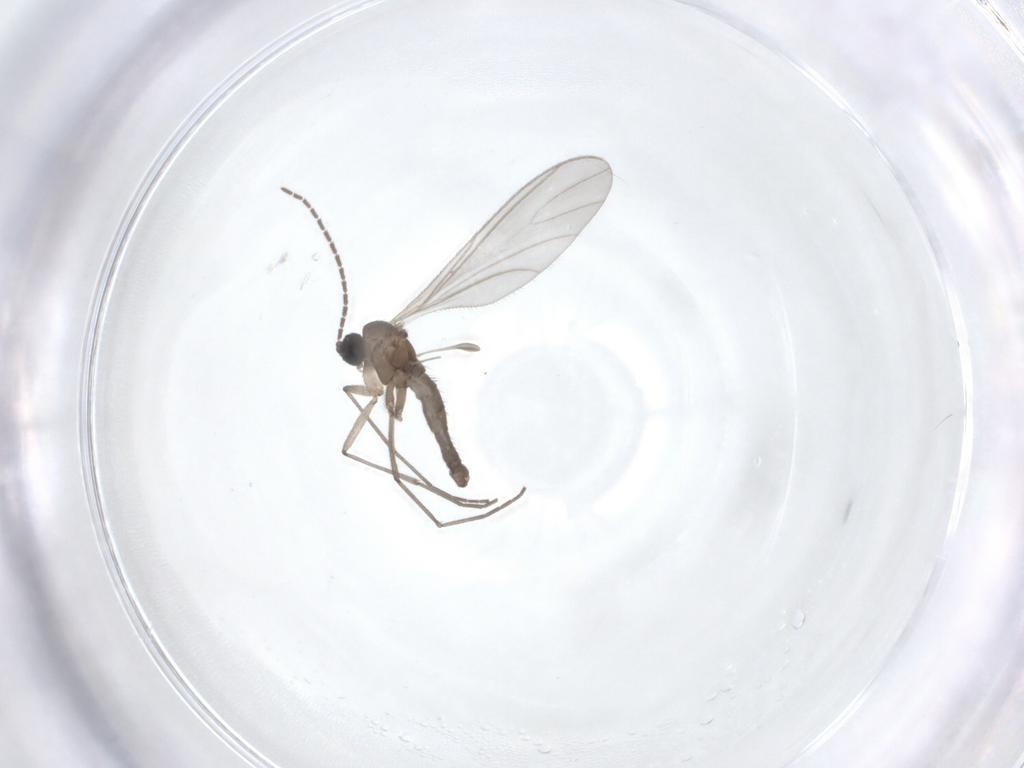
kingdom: Animalia
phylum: Arthropoda
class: Insecta
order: Diptera
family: Sciaridae
